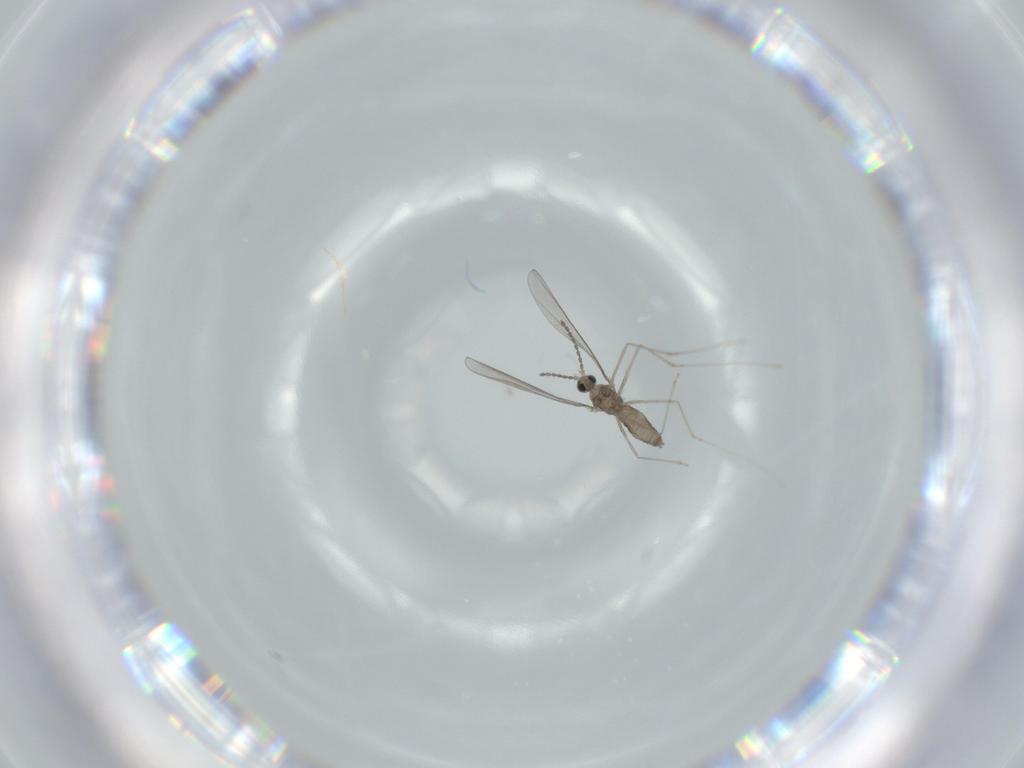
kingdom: Animalia
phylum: Arthropoda
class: Insecta
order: Diptera
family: Cecidomyiidae
